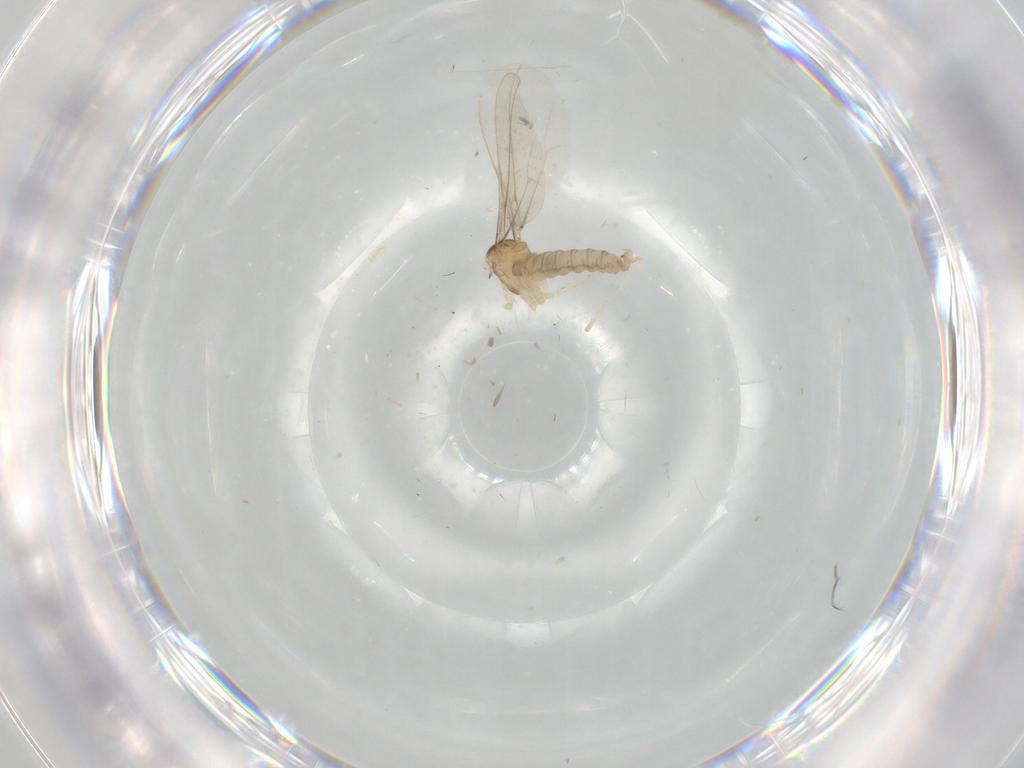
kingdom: Animalia
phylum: Arthropoda
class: Insecta
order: Diptera
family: Cecidomyiidae
